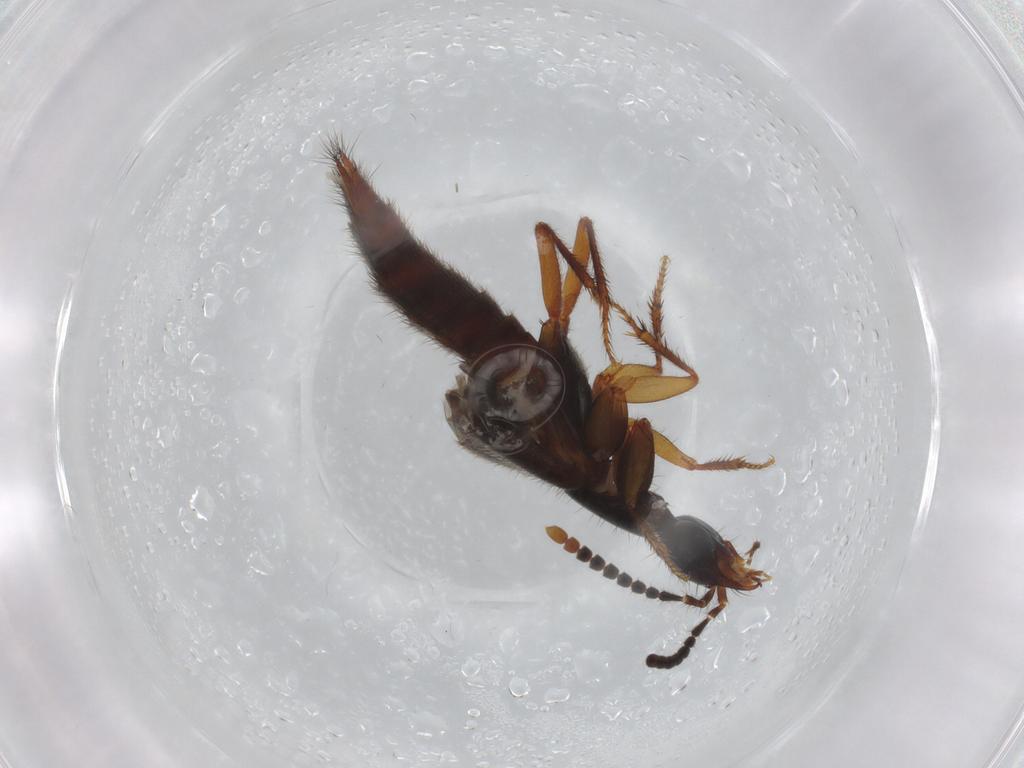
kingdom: Animalia
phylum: Arthropoda
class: Insecta
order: Coleoptera
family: Staphylinidae
